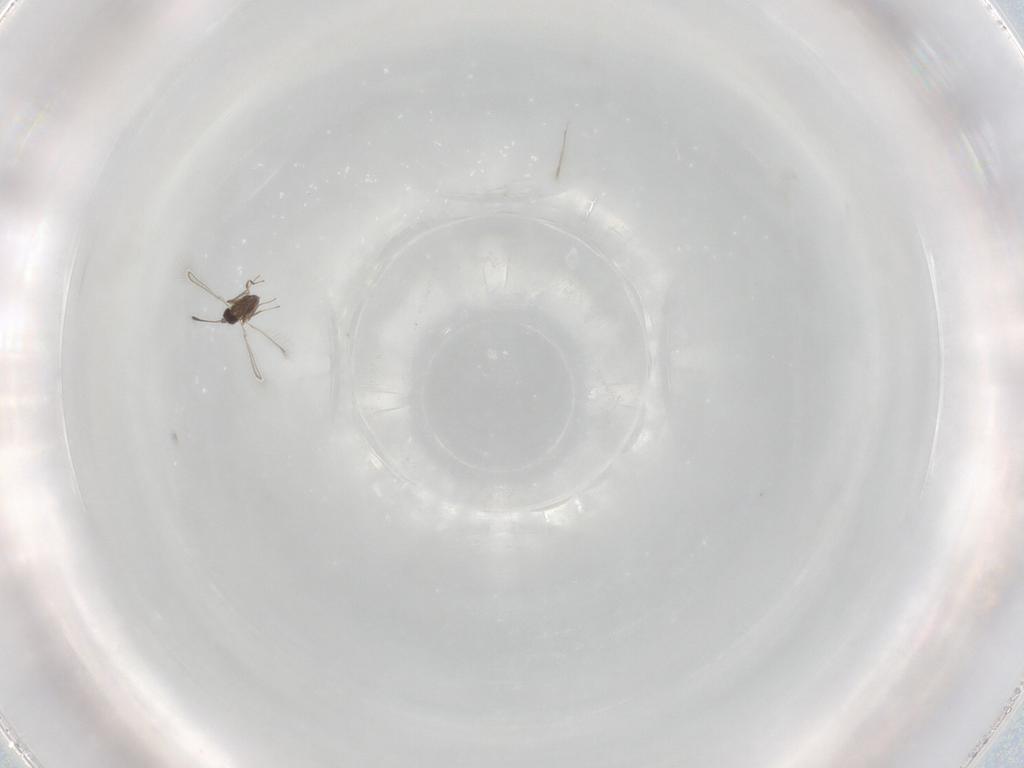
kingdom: Animalia
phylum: Arthropoda
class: Insecta
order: Hymenoptera
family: Mymaridae
